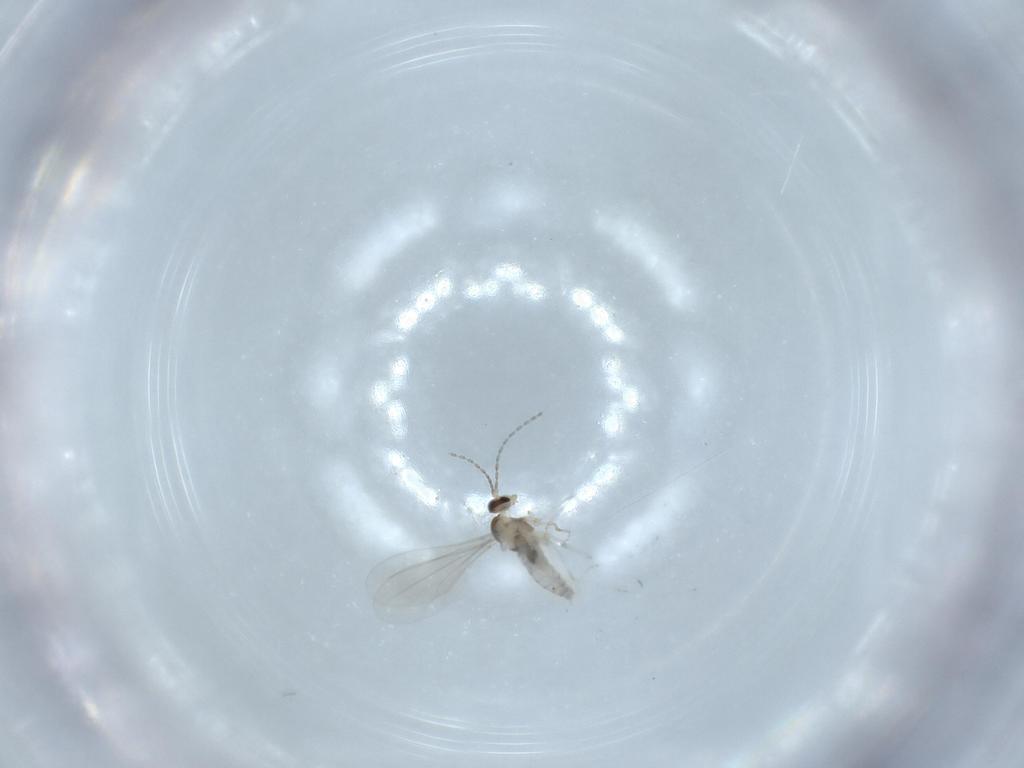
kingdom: Animalia
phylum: Arthropoda
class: Insecta
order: Diptera
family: Cecidomyiidae
